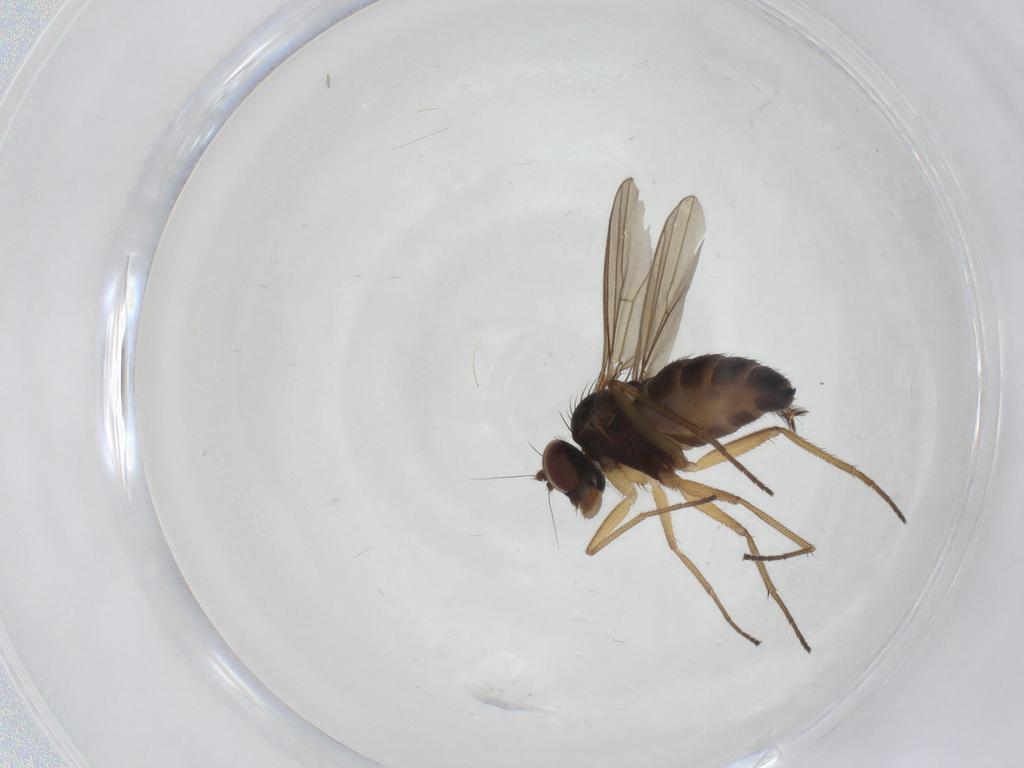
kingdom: Animalia
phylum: Arthropoda
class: Insecta
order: Diptera
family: Dolichopodidae
